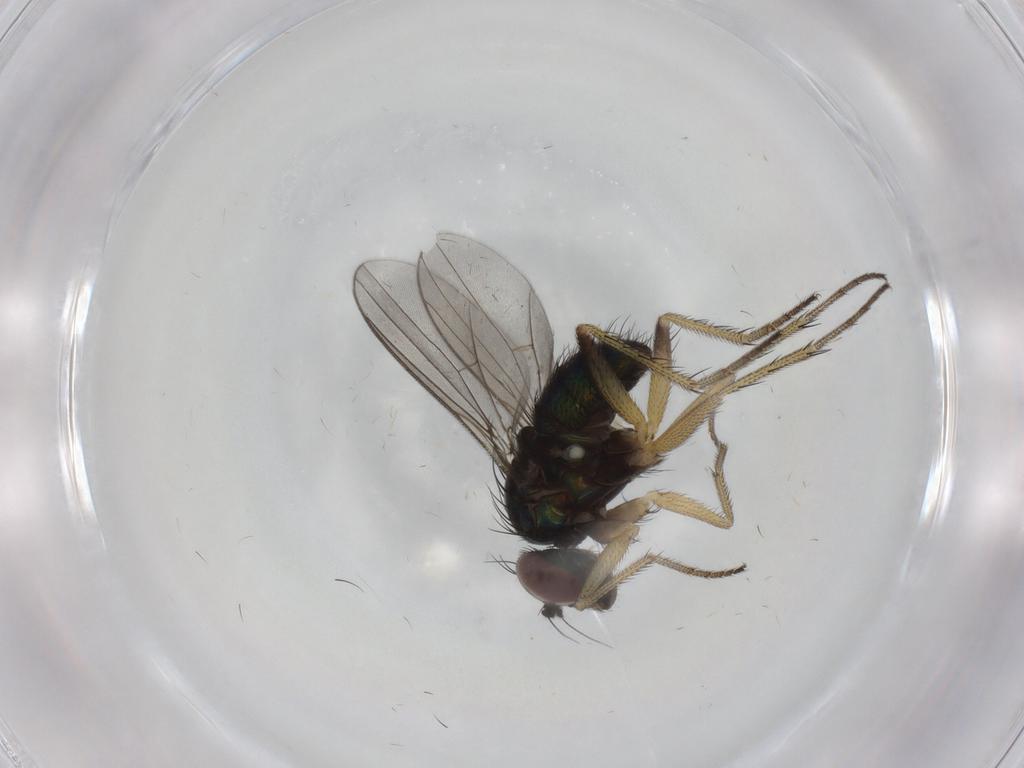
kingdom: Animalia
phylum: Arthropoda
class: Insecta
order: Diptera
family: Dolichopodidae
